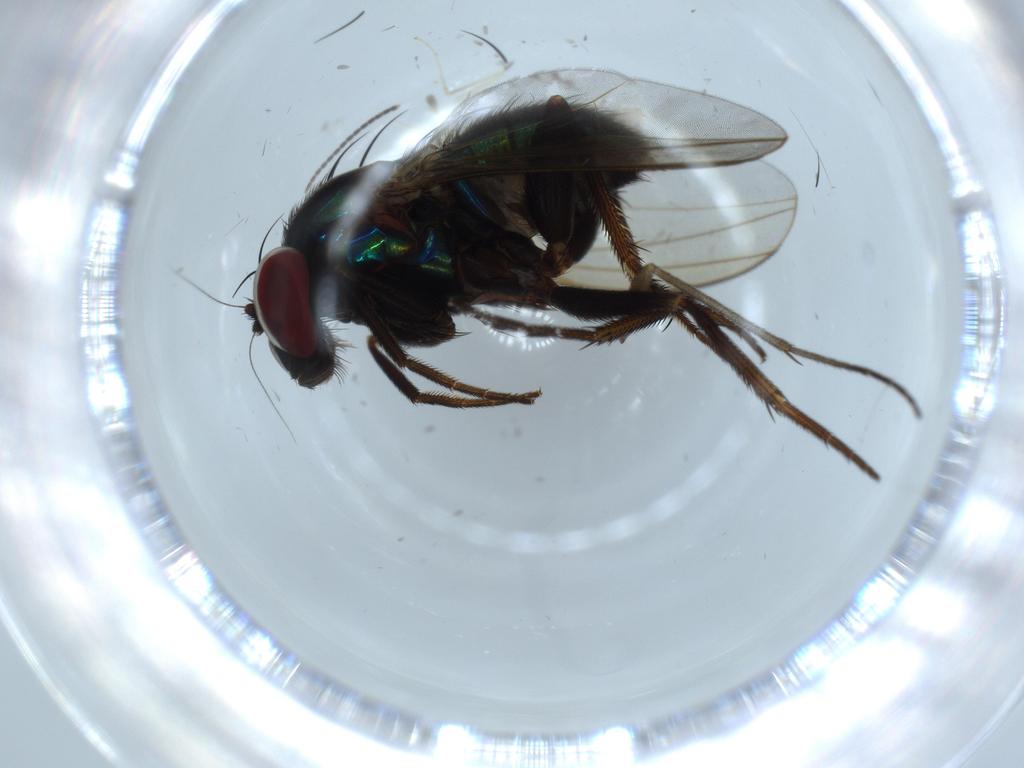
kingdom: Animalia
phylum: Arthropoda
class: Insecta
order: Diptera
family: Dolichopodidae
